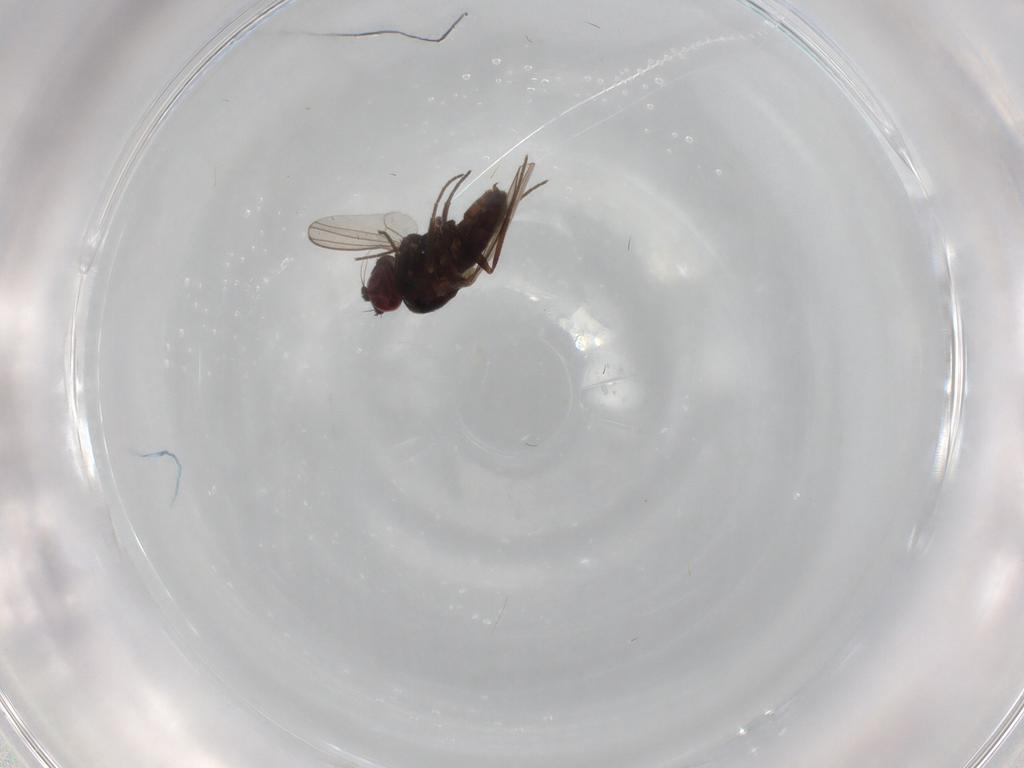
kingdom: Animalia
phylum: Arthropoda
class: Insecta
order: Diptera
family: Dolichopodidae
